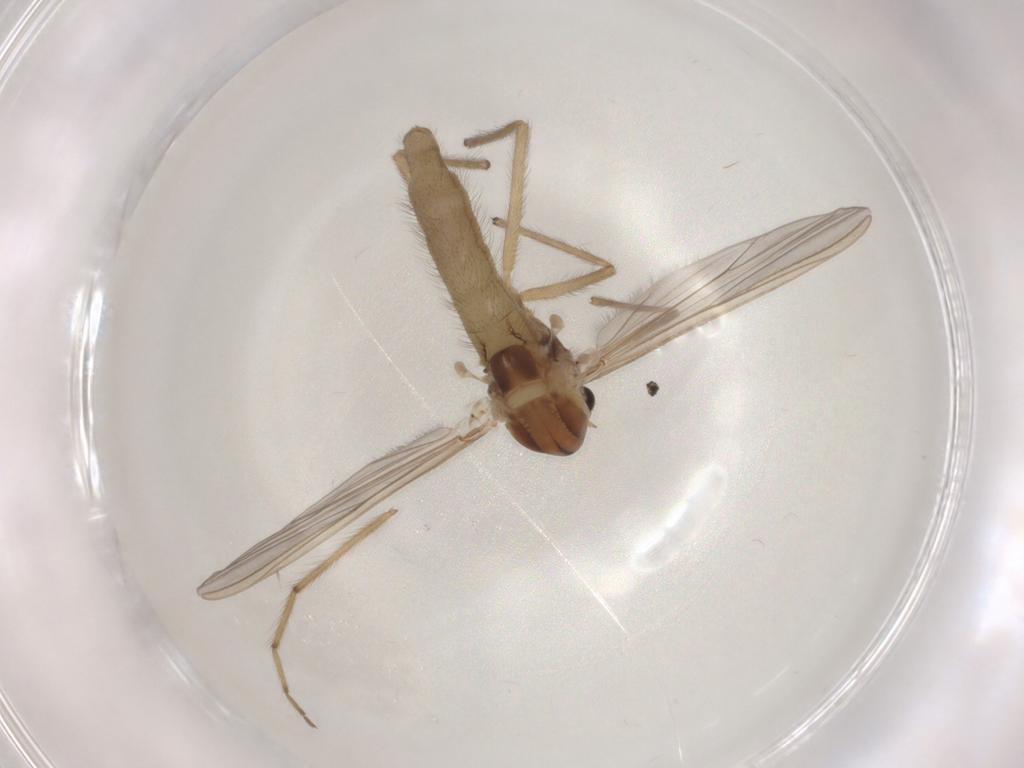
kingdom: Animalia
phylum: Arthropoda
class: Insecta
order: Diptera
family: Chironomidae
